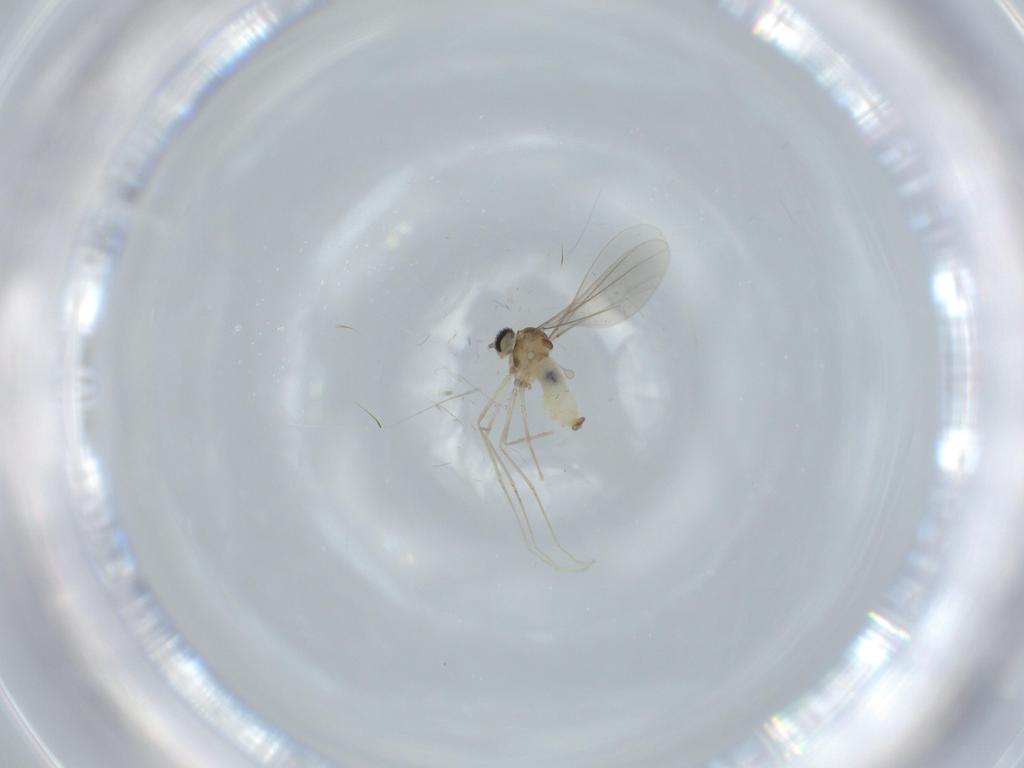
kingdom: Animalia
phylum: Arthropoda
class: Insecta
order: Diptera
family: Cecidomyiidae
